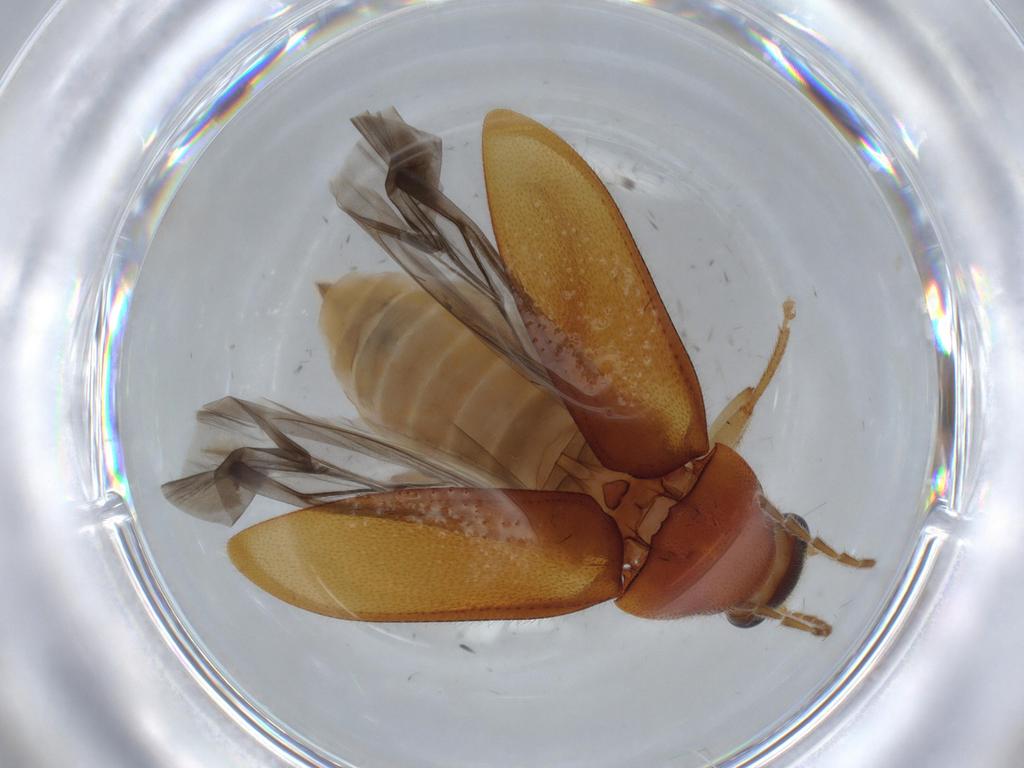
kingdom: Animalia
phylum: Arthropoda
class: Insecta
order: Coleoptera
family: Ptilodactylidae
